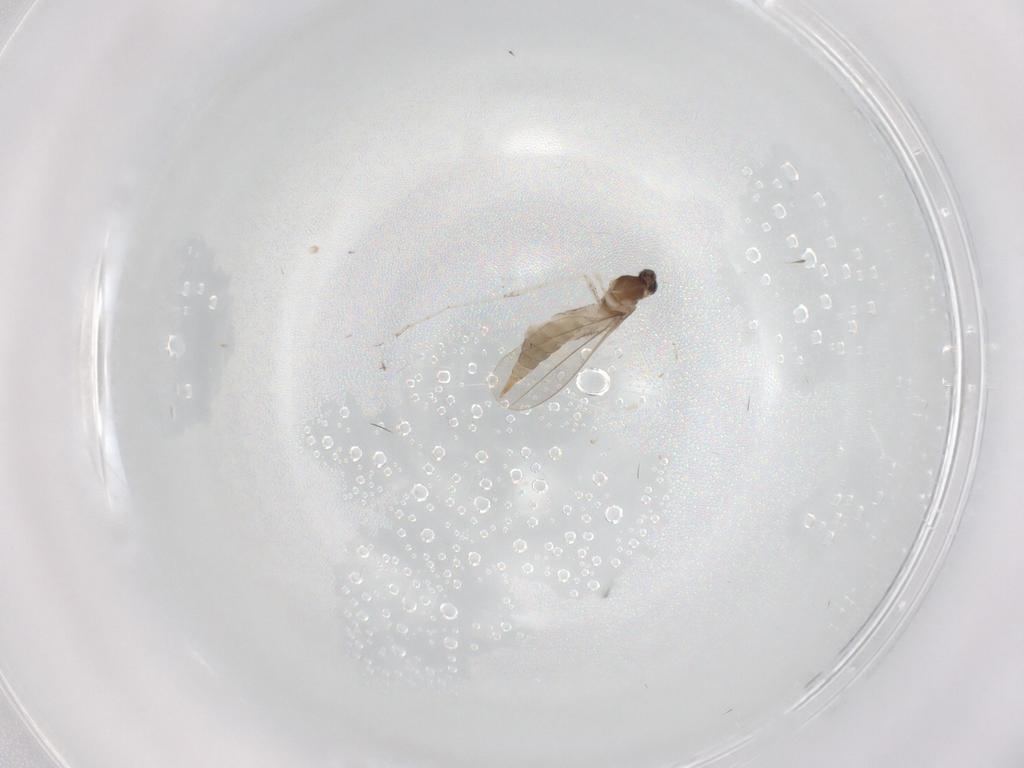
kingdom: Animalia
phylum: Arthropoda
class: Insecta
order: Diptera
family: Cecidomyiidae
